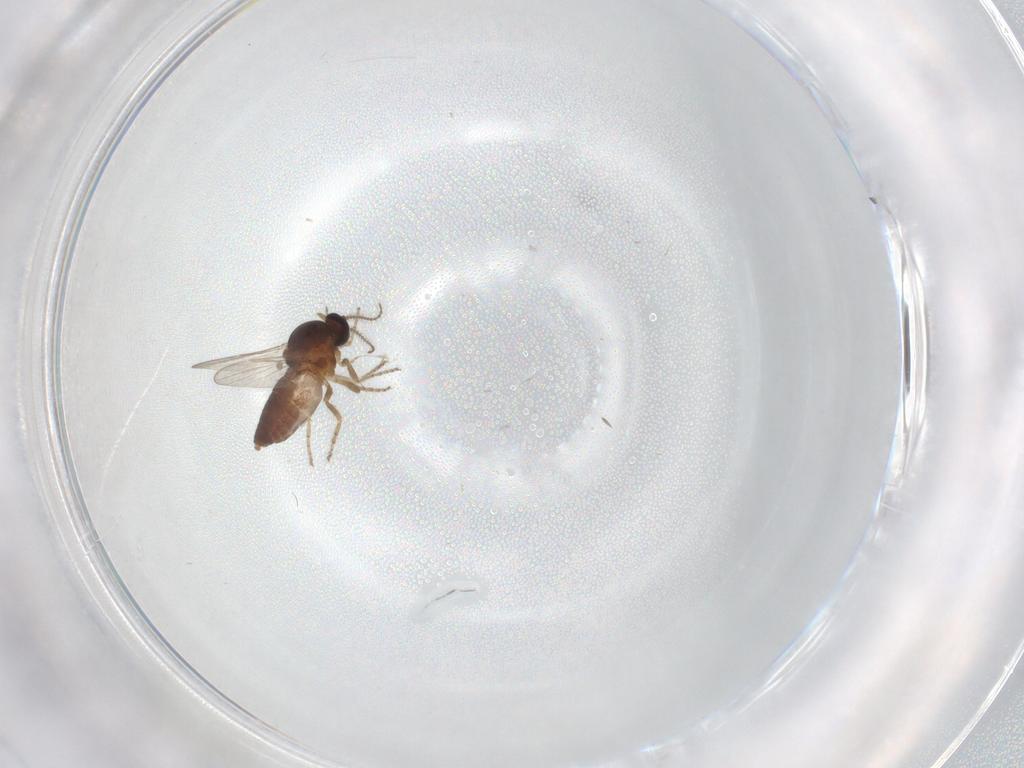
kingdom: Animalia
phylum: Arthropoda
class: Insecta
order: Diptera
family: Ceratopogonidae
